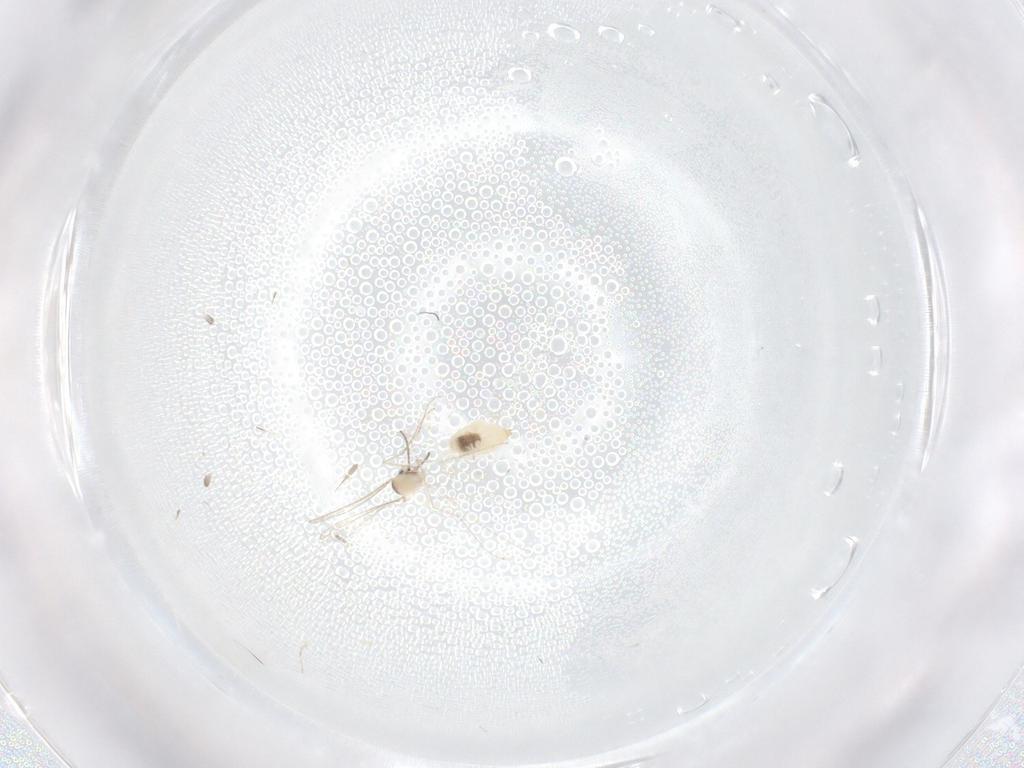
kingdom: Animalia
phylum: Arthropoda
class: Insecta
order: Diptera
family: Cecidomyiidae
